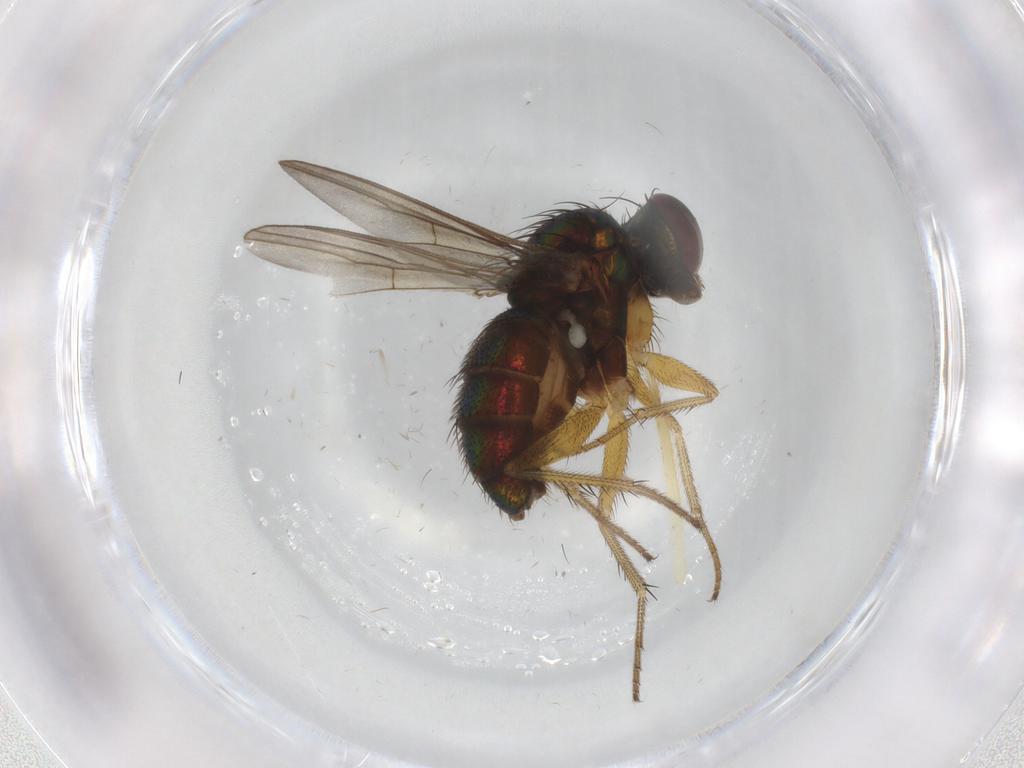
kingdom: Animalia
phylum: Arthropoda
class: Insecta
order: Diptera
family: Dolichopodidae
